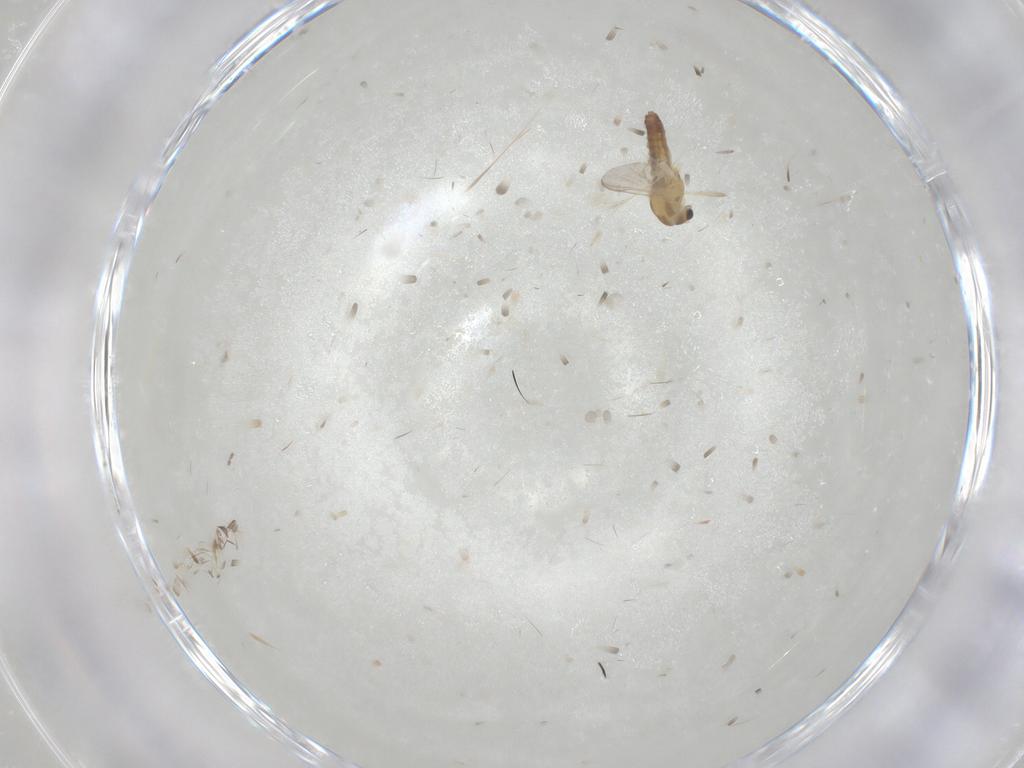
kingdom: Animalia
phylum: Arthropoda
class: Insecta
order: Diptera
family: Chironomidae
